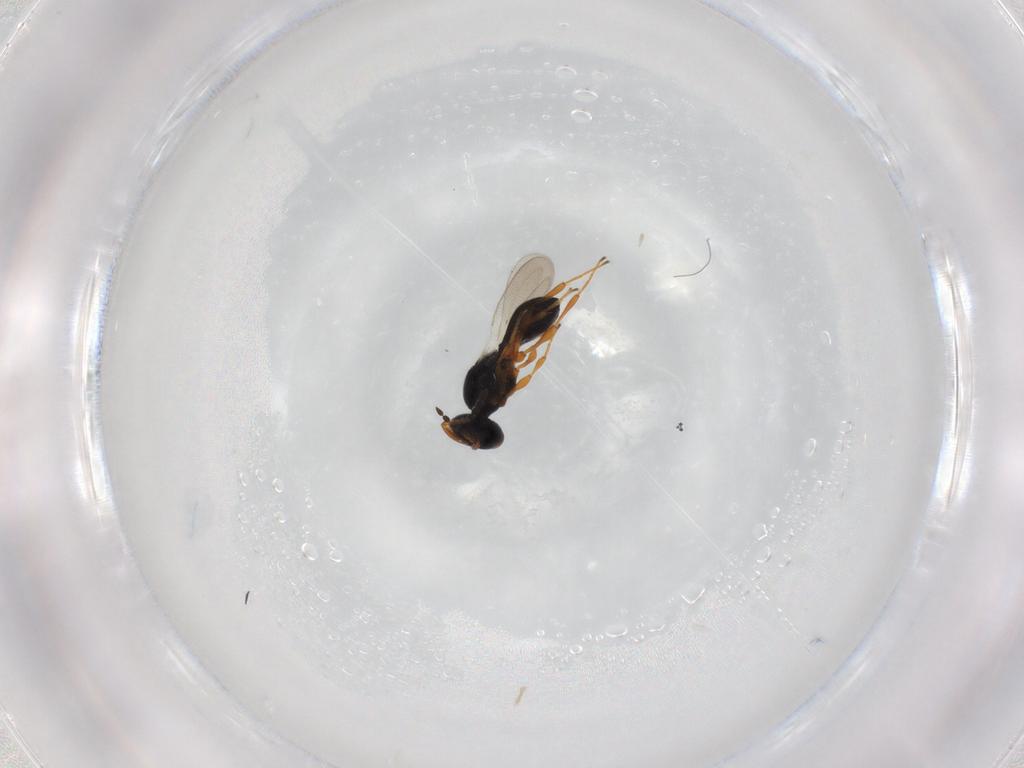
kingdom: Animalia
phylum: Arthropoda
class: Insecta
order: Hymenoptera
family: Platygastridae
